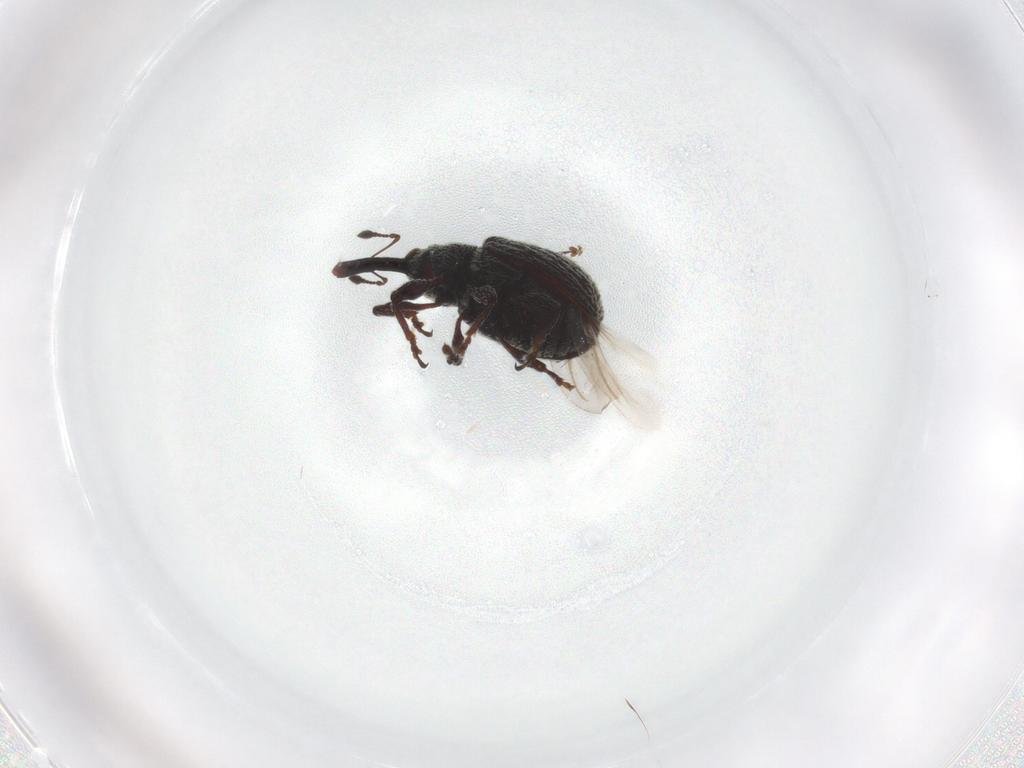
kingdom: Animalia
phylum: Arthropoda
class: Insecta
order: Coleoptera
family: Curculionidae
